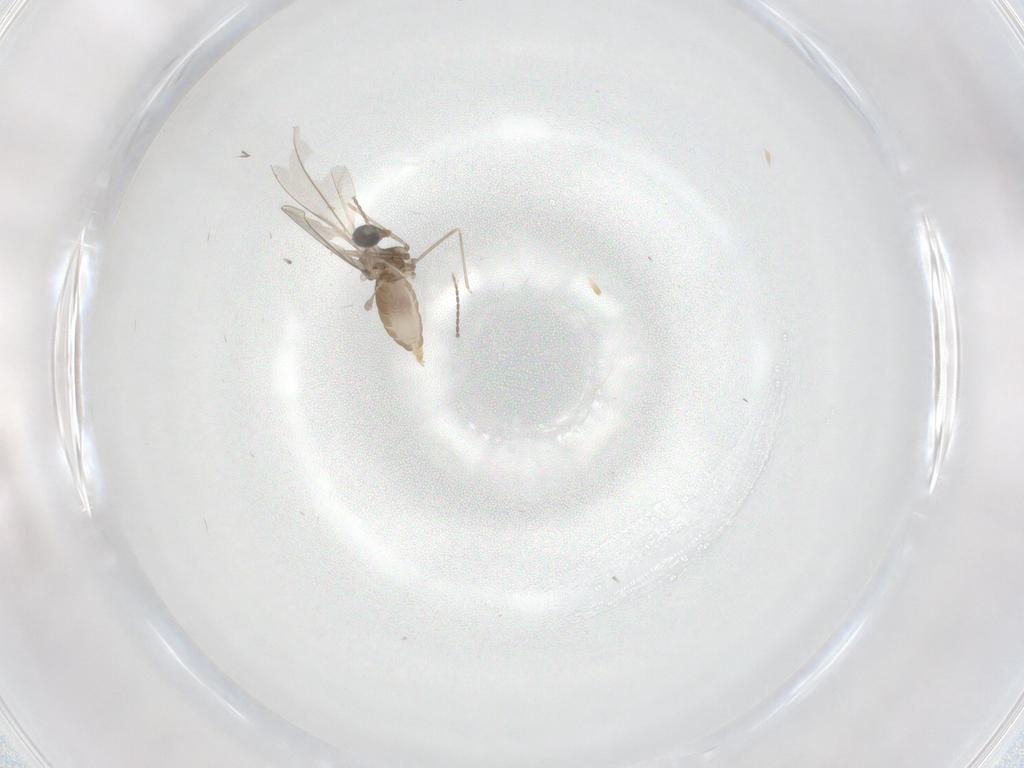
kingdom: Animalia
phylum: Arthropoda
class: Insecta
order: Diptera
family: Cecidomyiidae
